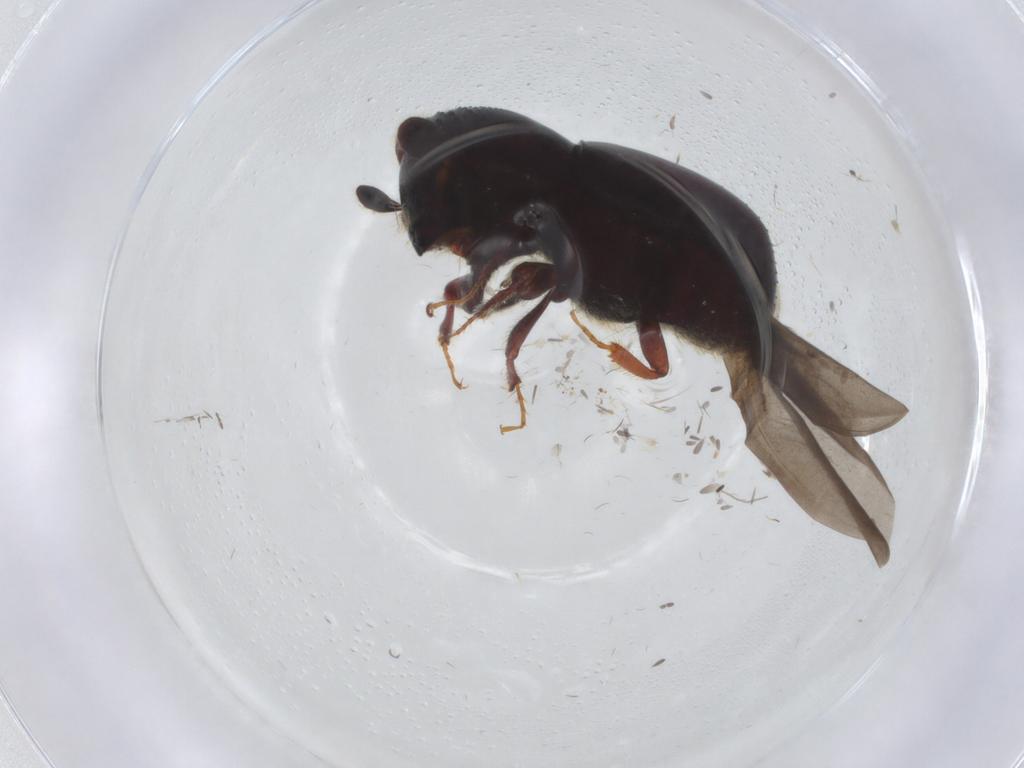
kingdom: Animalia
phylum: Arthropoda
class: Insecta
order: Coleoptera
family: Curculionidae
